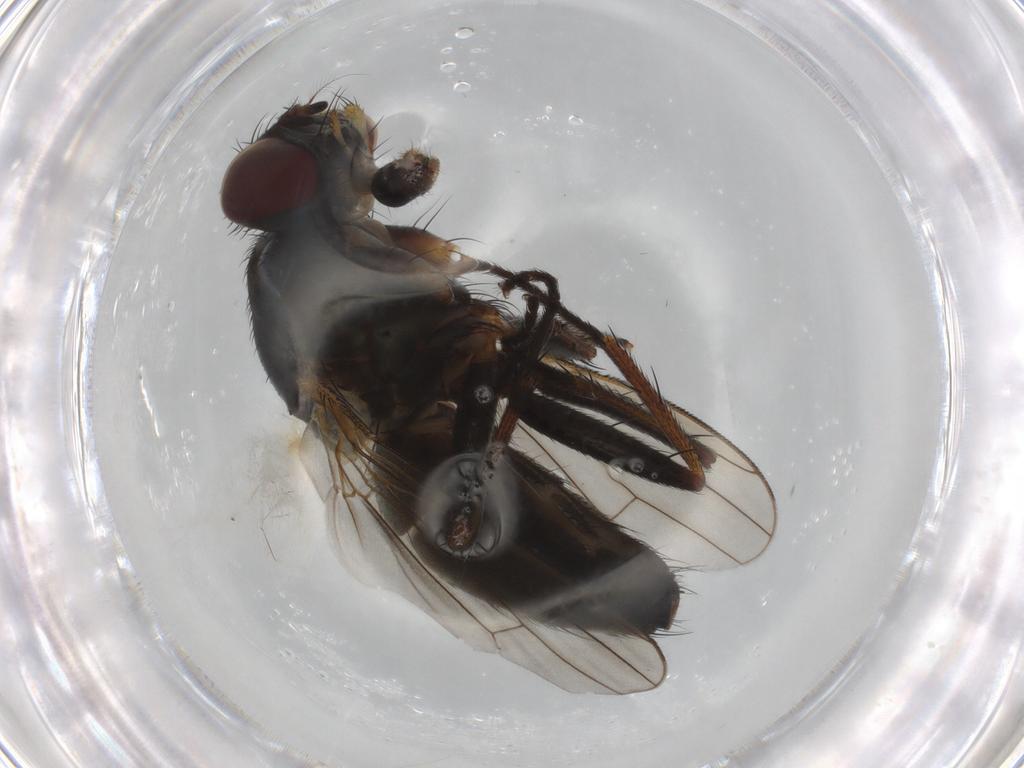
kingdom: Animalia
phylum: Arthropoda
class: Insecta
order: Diptera
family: Muscidae
